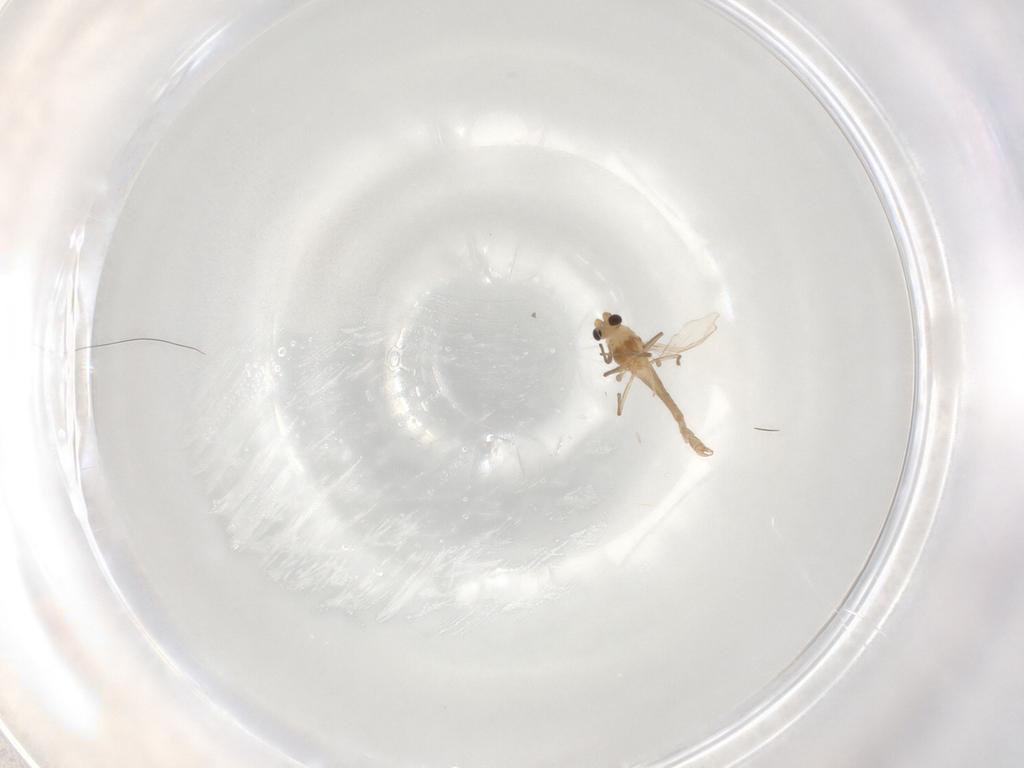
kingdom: Animalia
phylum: Arthropoda
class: Insecta
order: Diptera
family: Chironomidae
